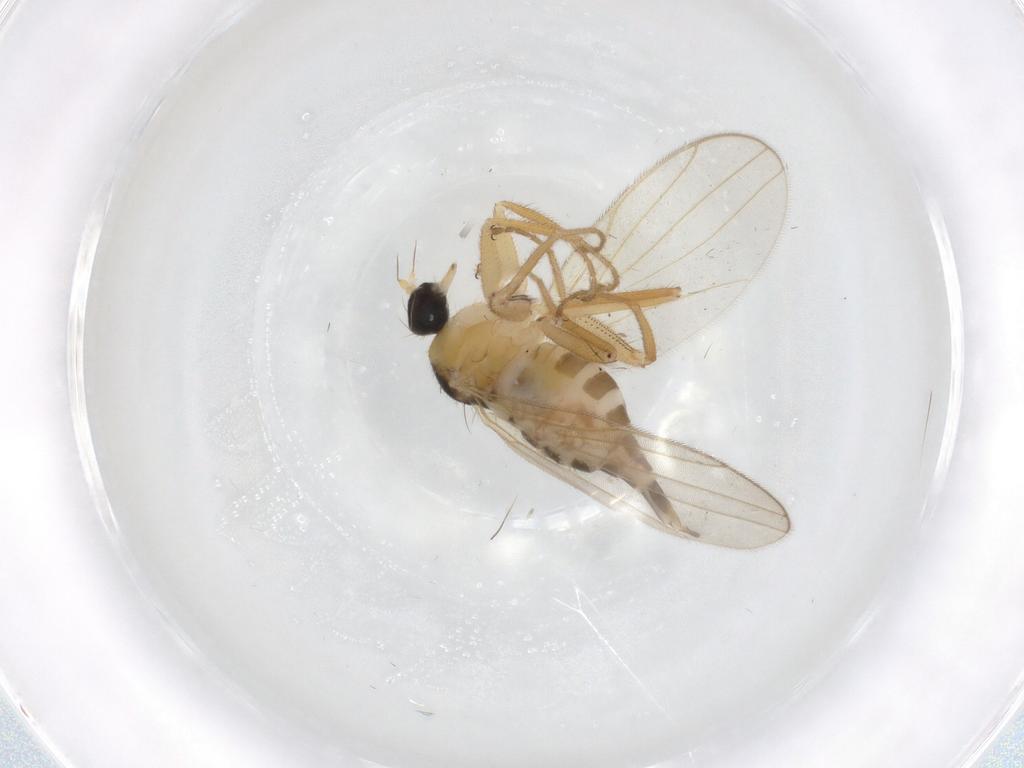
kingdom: Animalia
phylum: Arthropoda
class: Insecta
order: Diptera
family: Hybotidae
